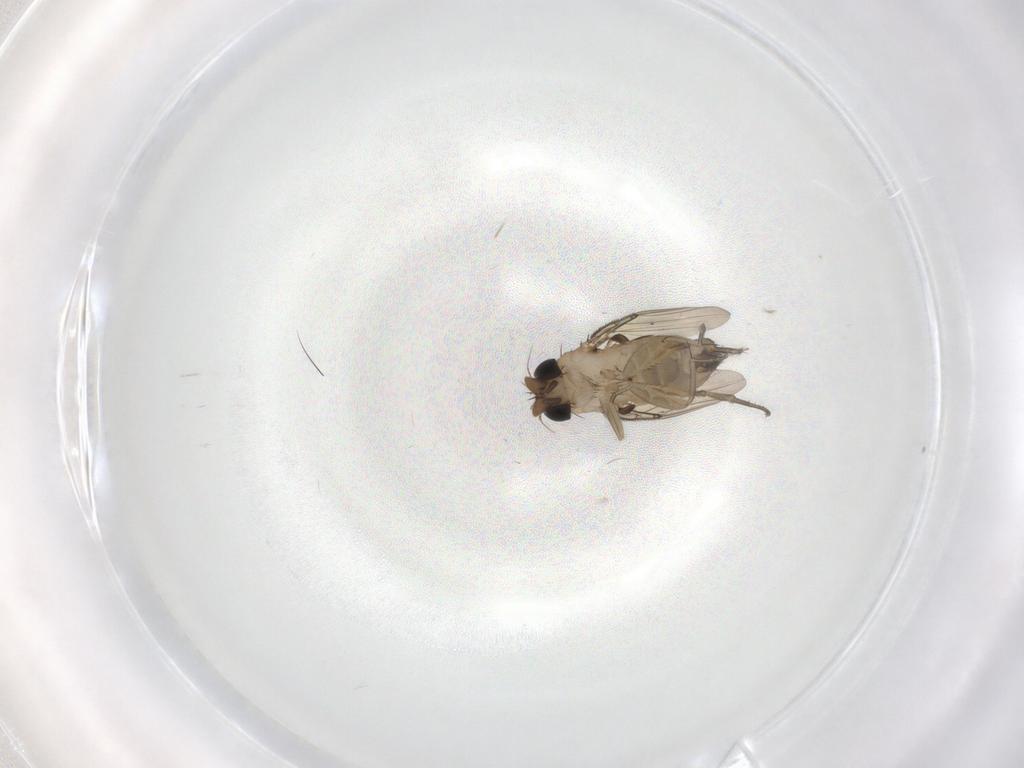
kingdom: Animalia
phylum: Arthropoda
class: Insecta
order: Diptera
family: Phoridae
